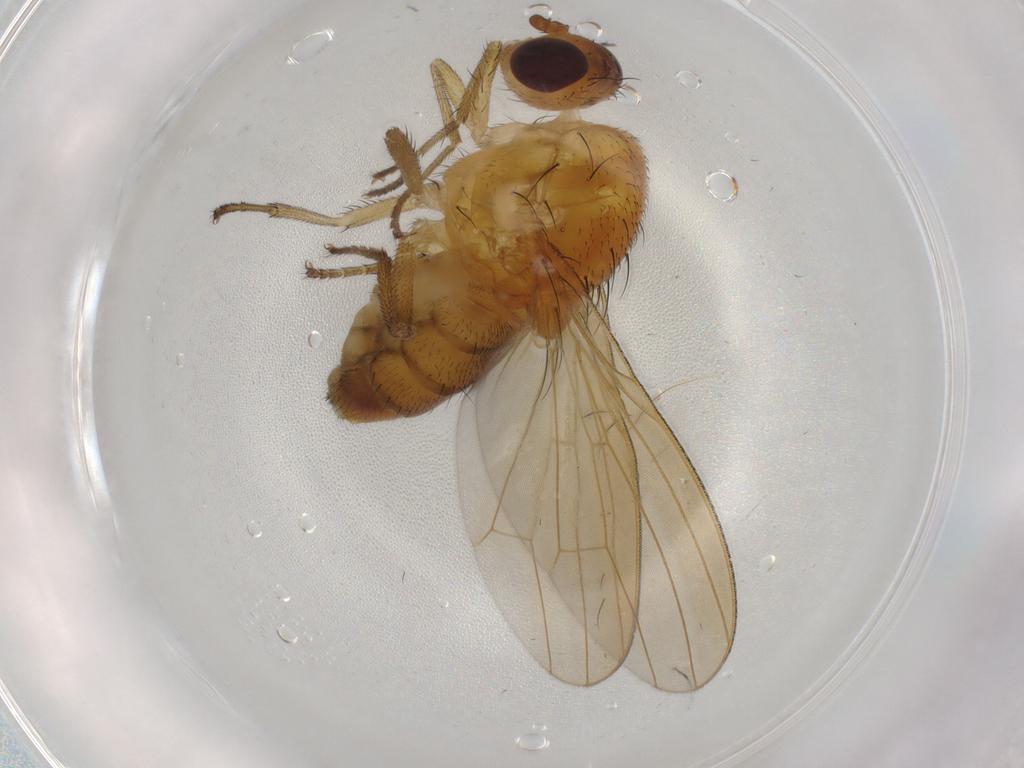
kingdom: Animalia
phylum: Arthropoda
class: Insecta
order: Diptera
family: Lauxaniidae
